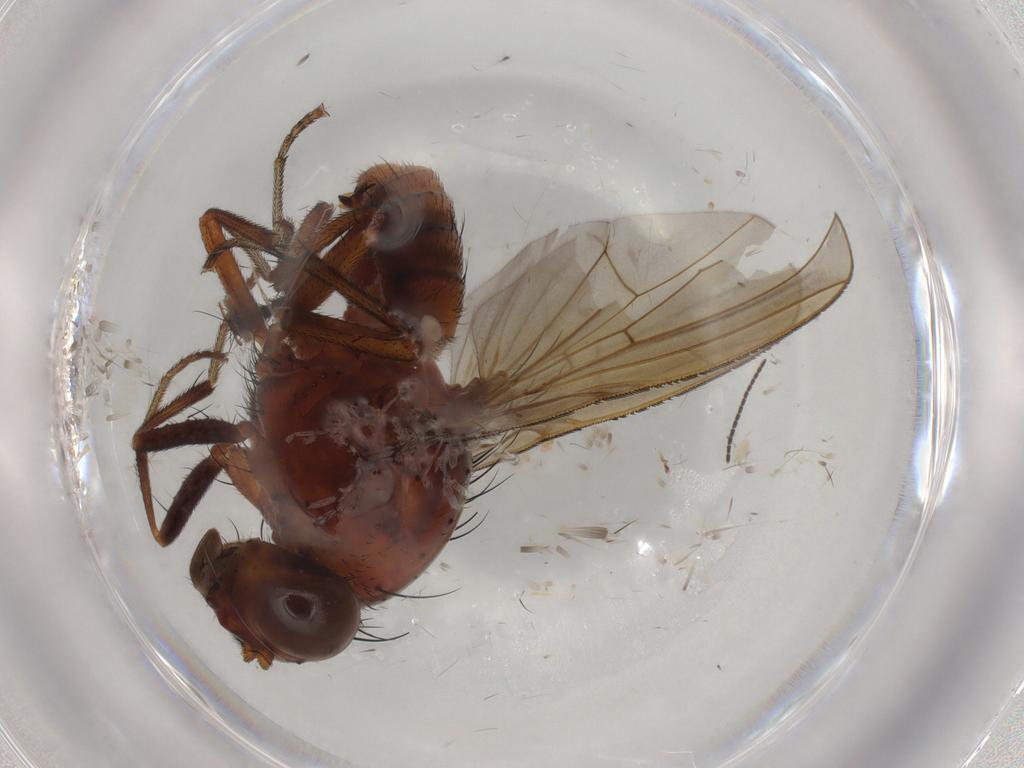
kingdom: Animalia
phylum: Arthropoda
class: Insecta
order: Diptera
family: Tachinidae
